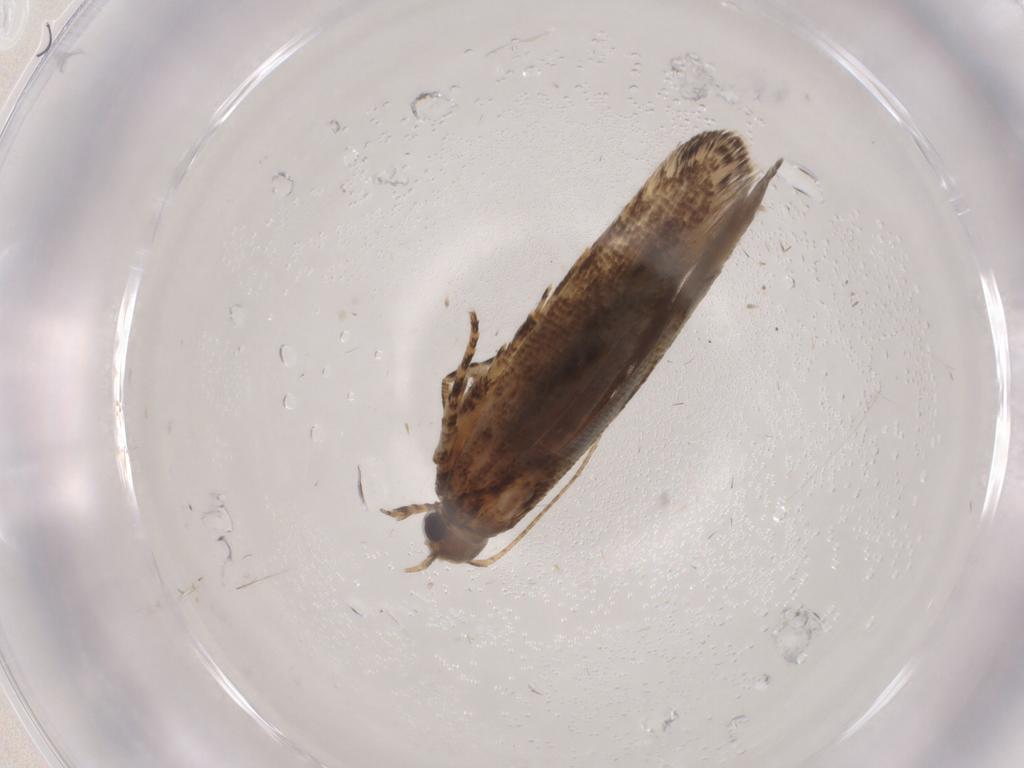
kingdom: Animalia
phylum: Arthropoda
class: Insecta
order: Lepidoptera
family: Gelechiidae
